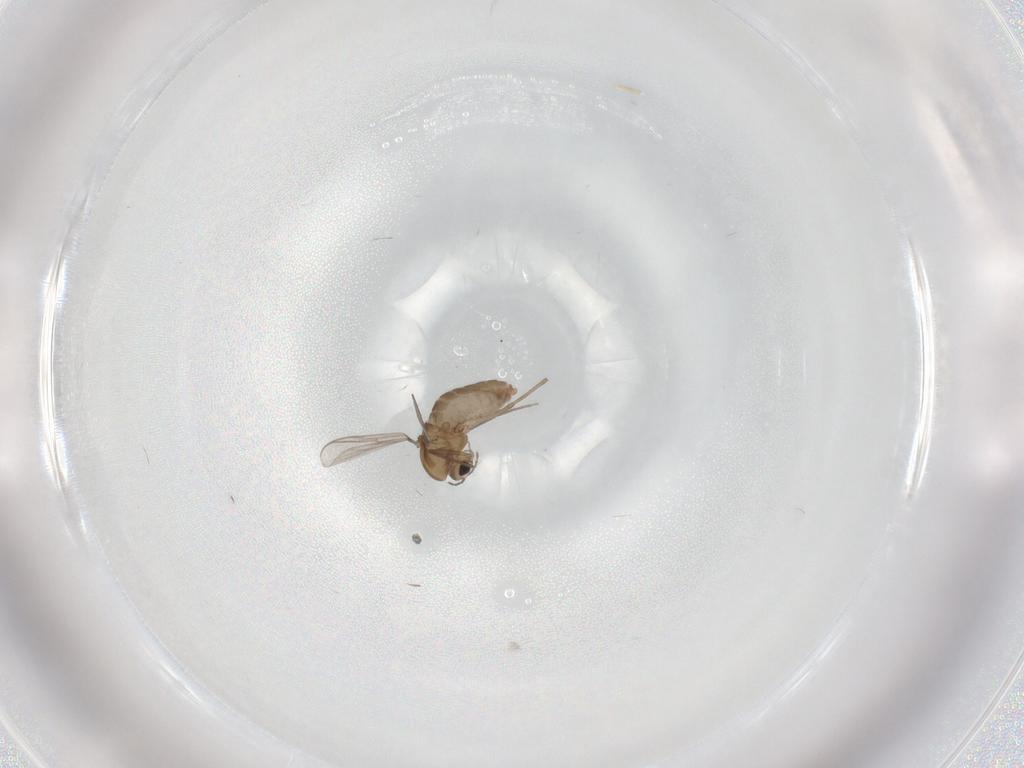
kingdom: Animalia
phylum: Arthropoda
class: Insecta
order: Diptera
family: Chironomidae
